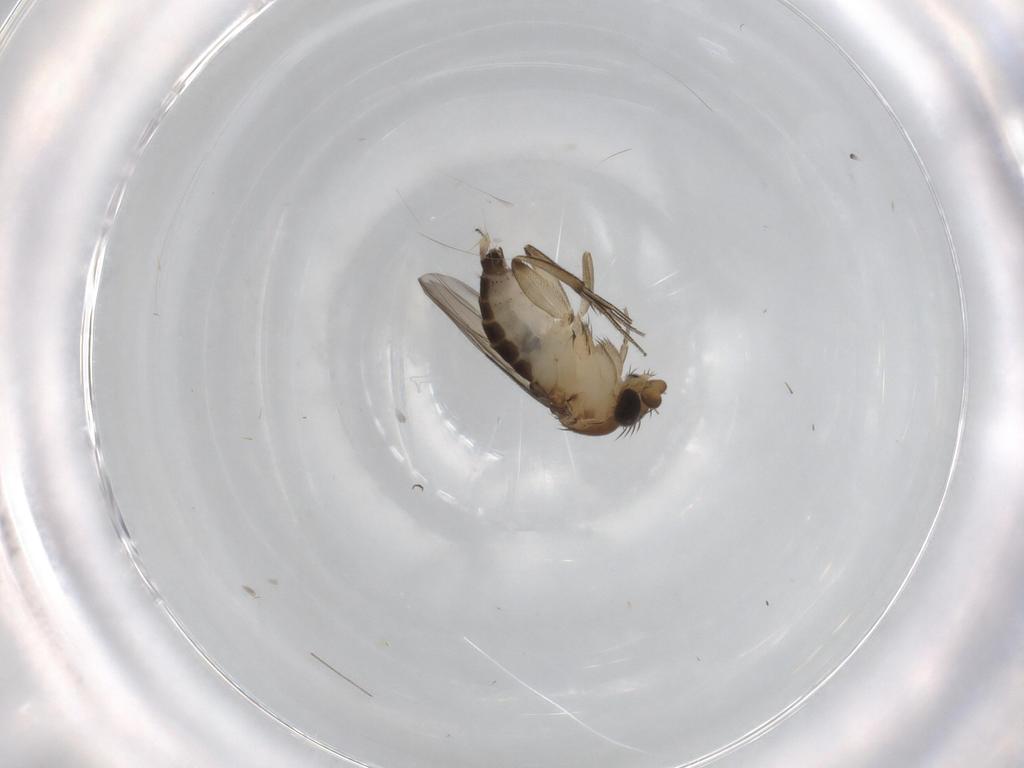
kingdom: Animalia
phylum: Arthropoda
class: Insecta
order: Diptera
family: Phoridae
